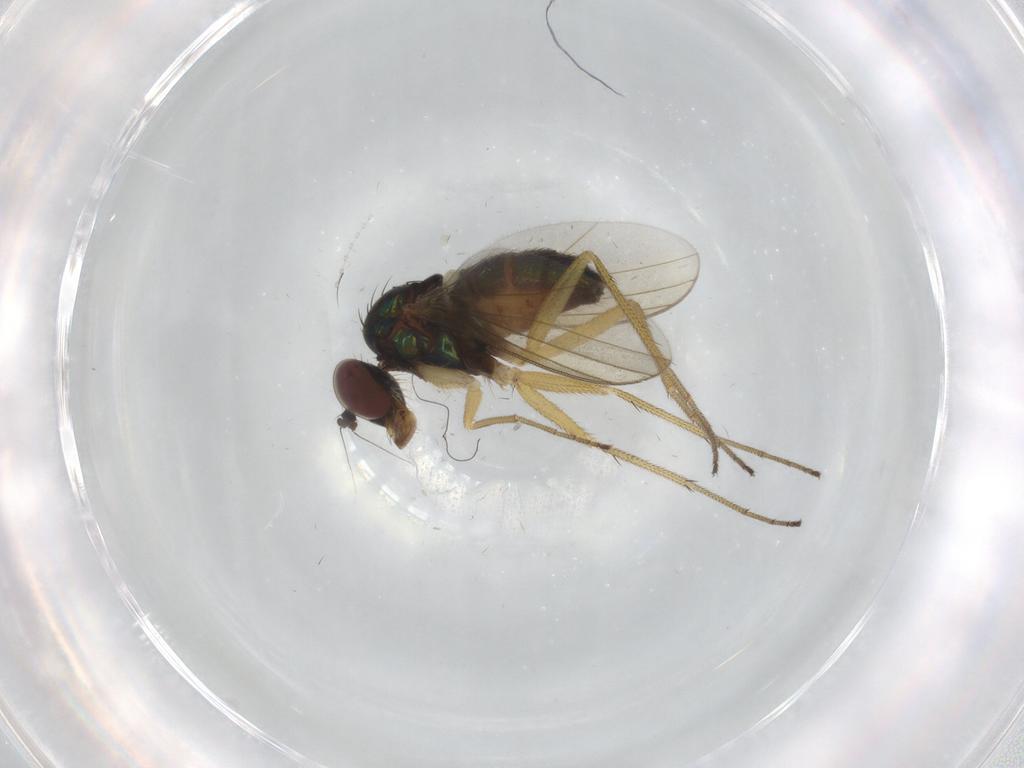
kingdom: Animalia
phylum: Arthropoda
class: Insecta
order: Diptera
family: Dolichopodidae
